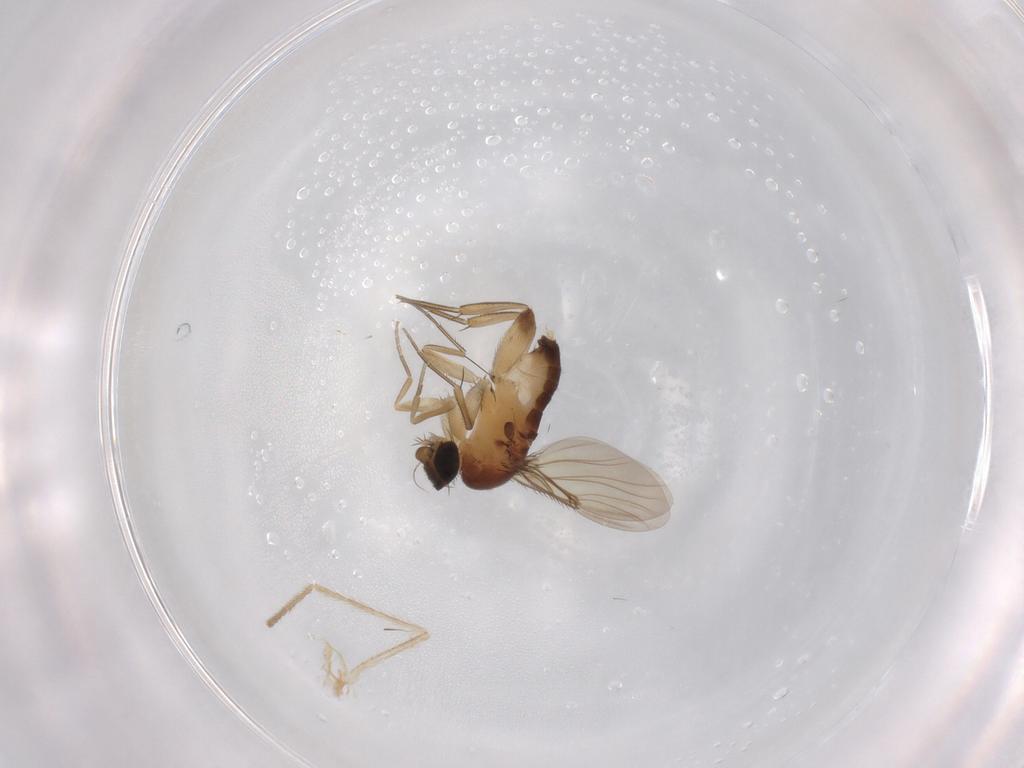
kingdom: Animalia
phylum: Arthropoda
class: Insecta
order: Diptera
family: Phoridae
